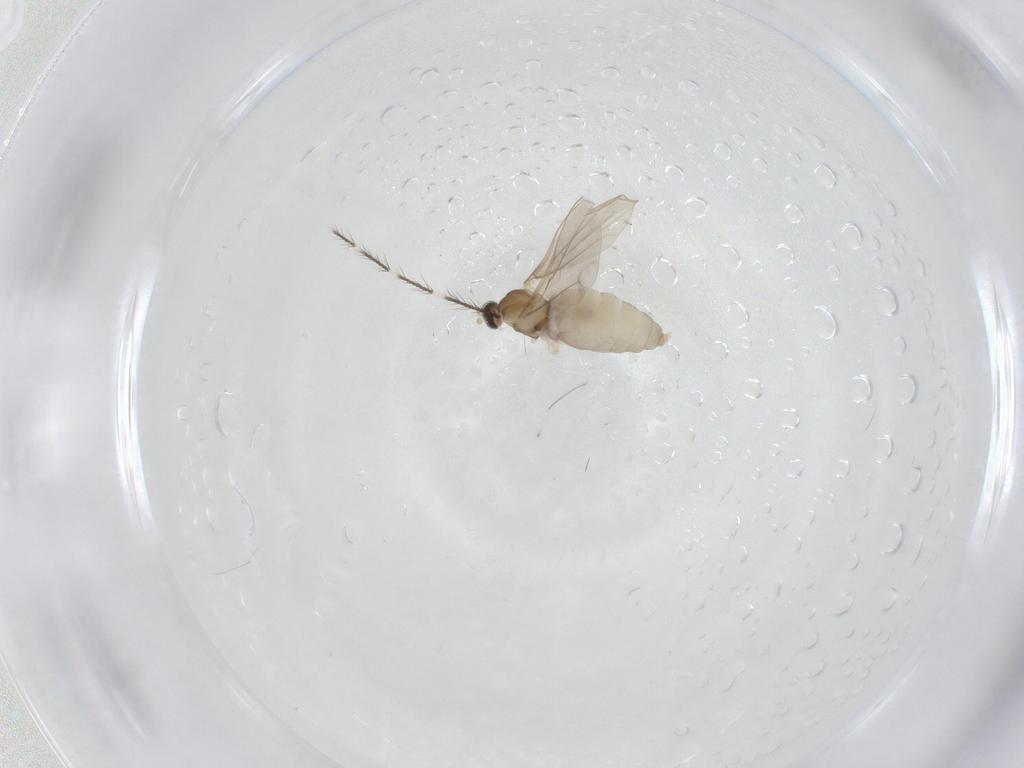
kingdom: Animalia
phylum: Arthropoda
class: Insecta
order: Diptera
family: Cecidomyiidae
